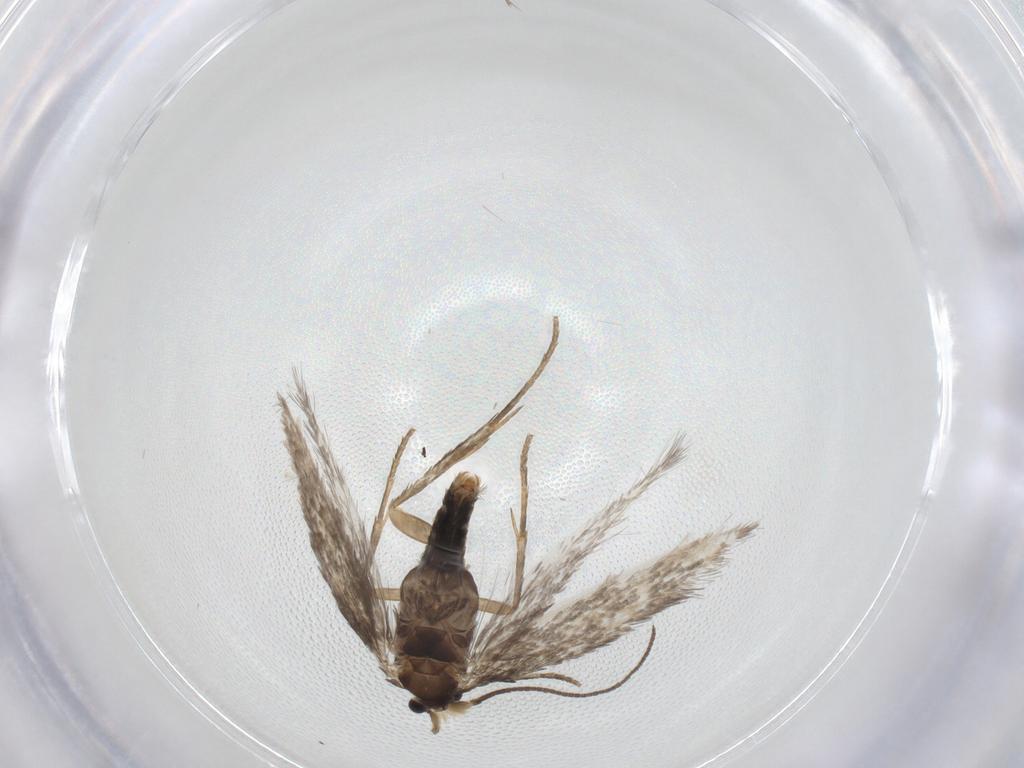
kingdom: Animalia
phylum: Arthropoda
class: Insecta
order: Lepidoptera
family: Nepticulidae
